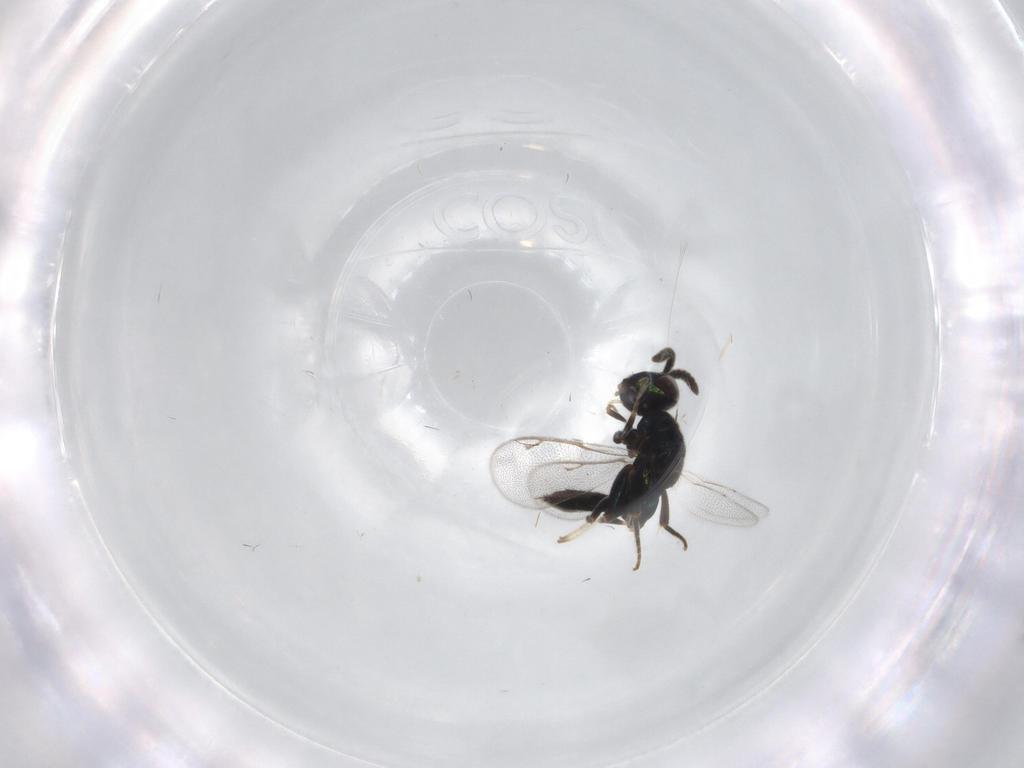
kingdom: Animalia
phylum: Arthropoda
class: Insecta
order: Hymenoptera
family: Cleonyminae
